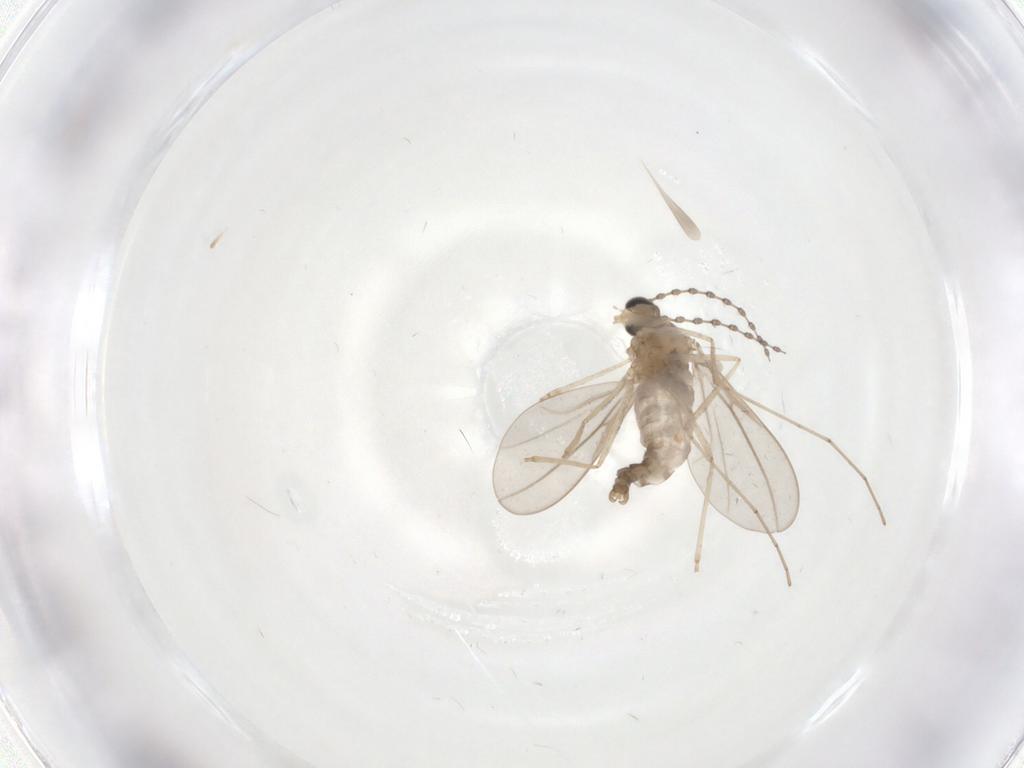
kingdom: Animalia
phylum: Arthropoda
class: Insecta
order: Diptera
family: Cecidomyiidae
